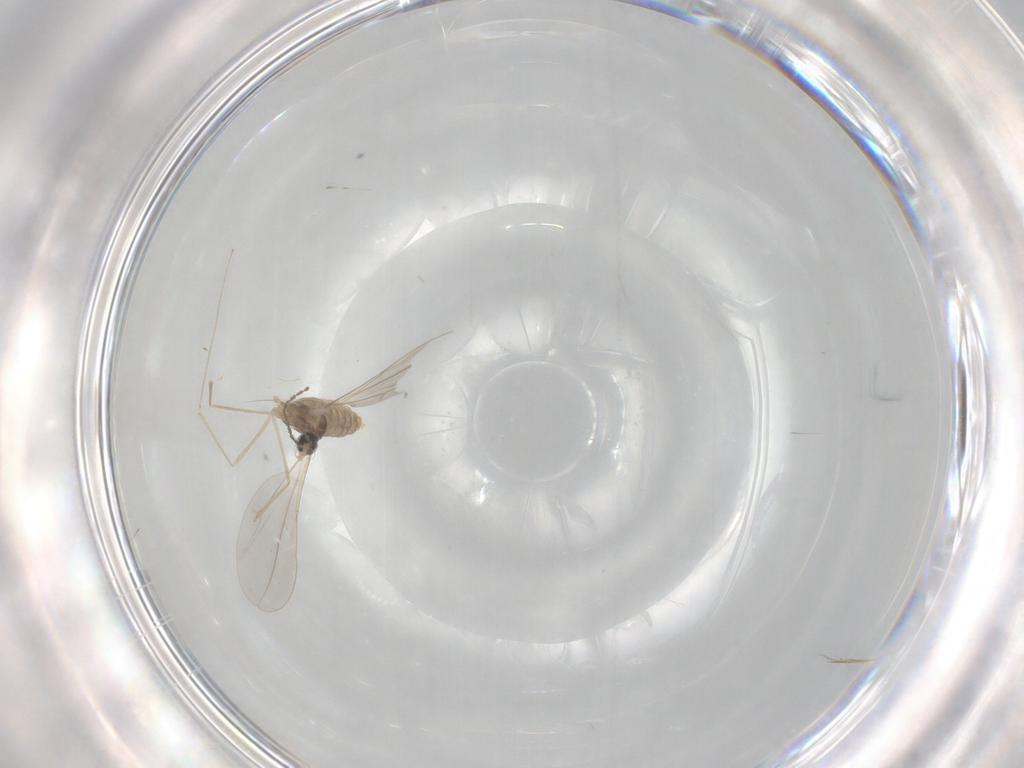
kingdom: Animalia
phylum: Arthropoda
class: Insecta
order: Diptera
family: Cecidomyiidae
